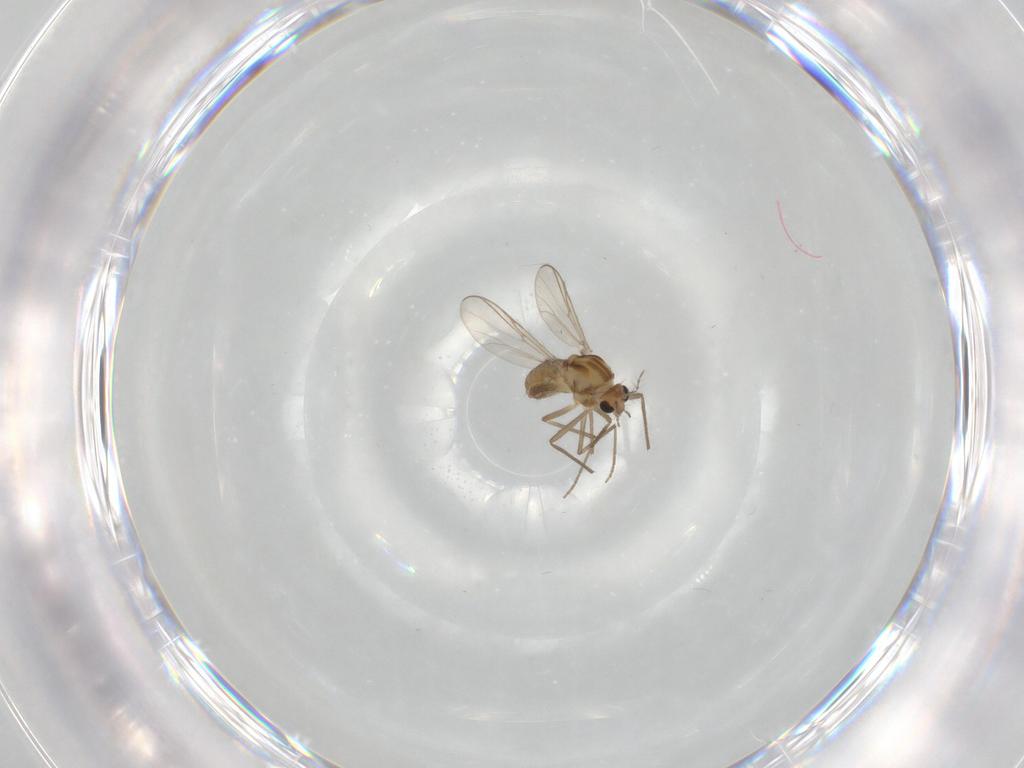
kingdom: Animalia
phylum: Arthropoda
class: Insecta
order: Diptera
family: Chironomidae
